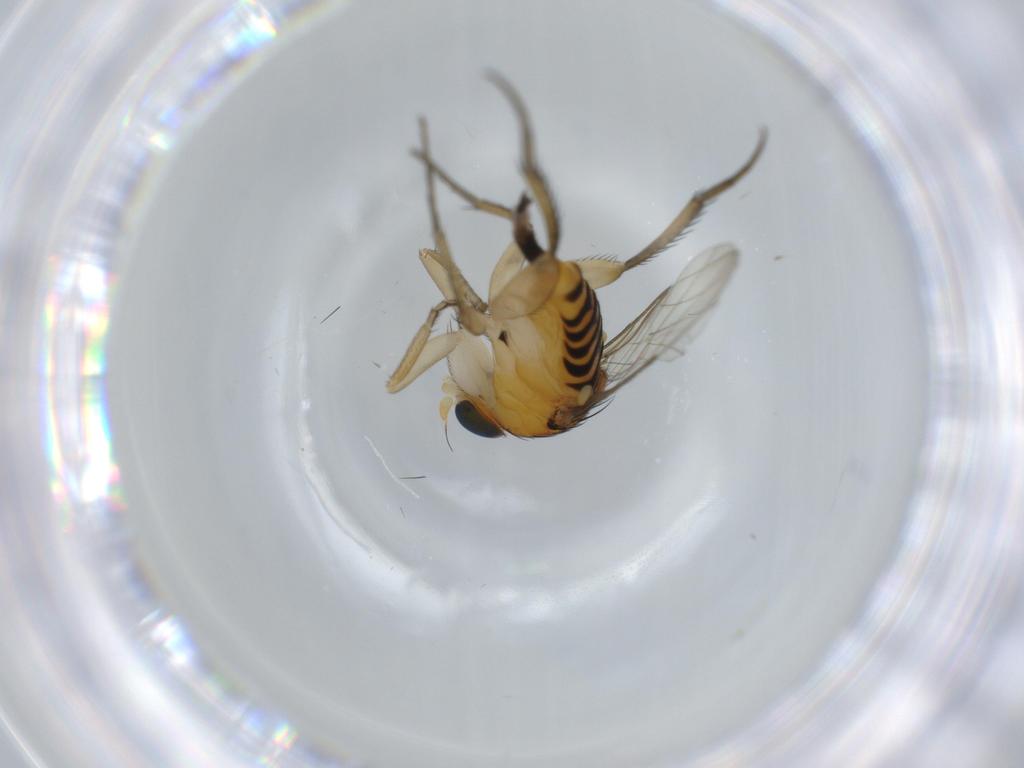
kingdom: Animalia
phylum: Arthropoda
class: Insecta
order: Diptera
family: Phoridae
